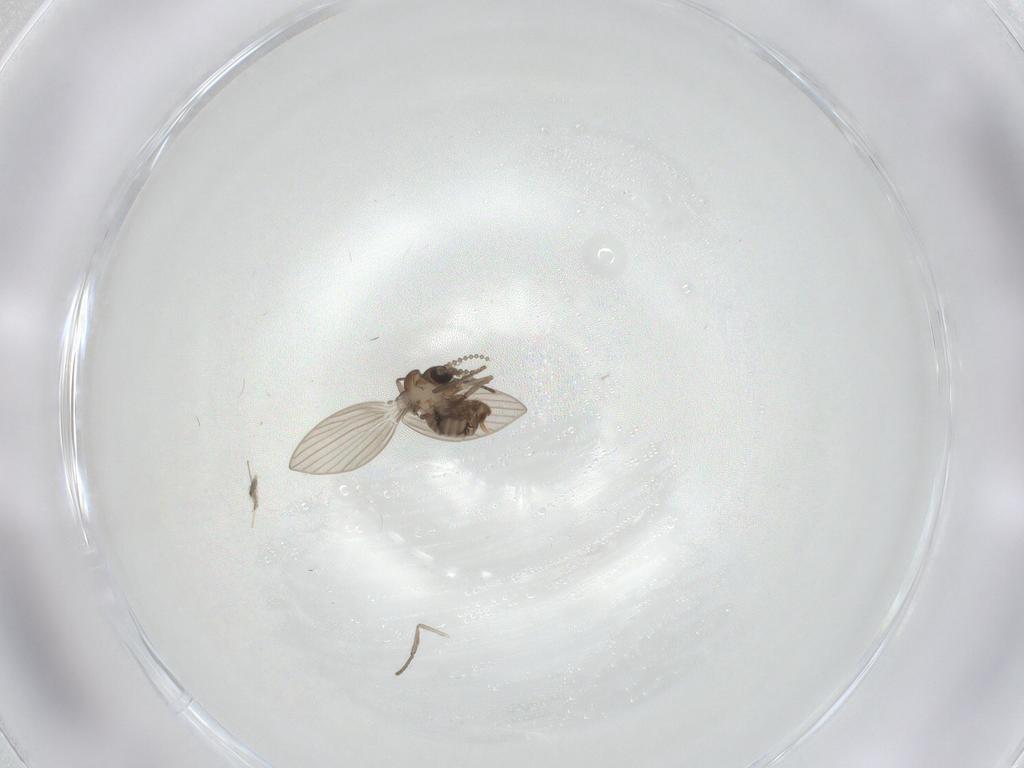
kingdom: Animalia
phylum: Arthropoda
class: Insecta
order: Diptera
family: Psychodidae
